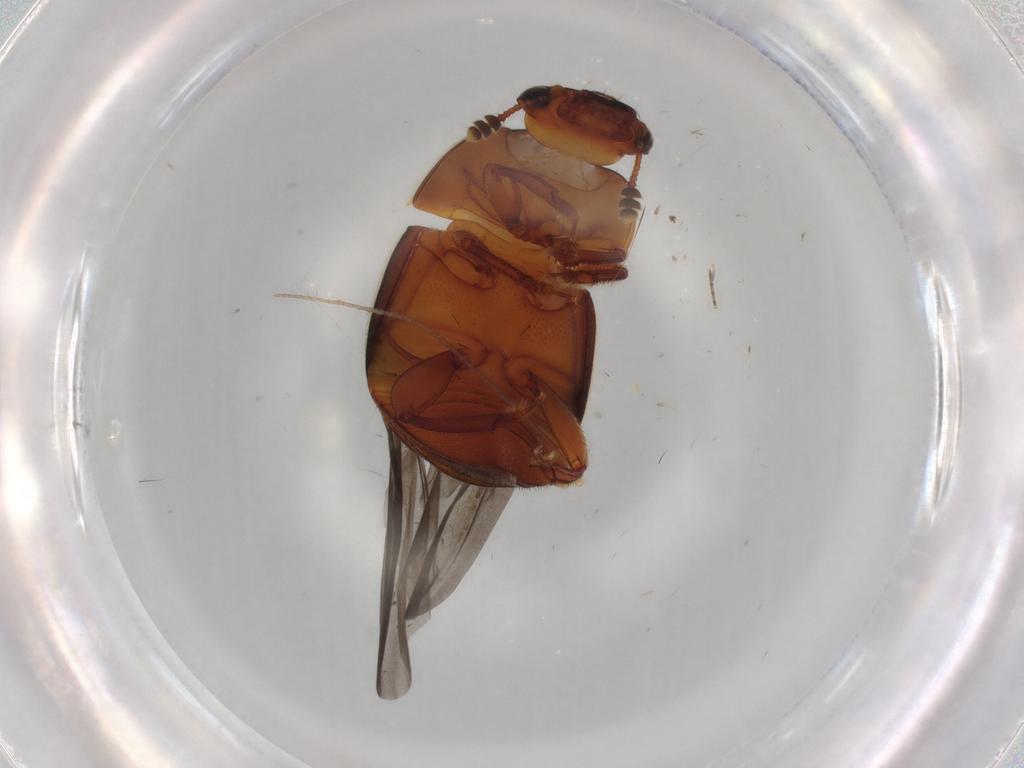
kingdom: Animalia
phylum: Arthropoda
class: Insecta
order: Coleoptera
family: Nitidulidae
